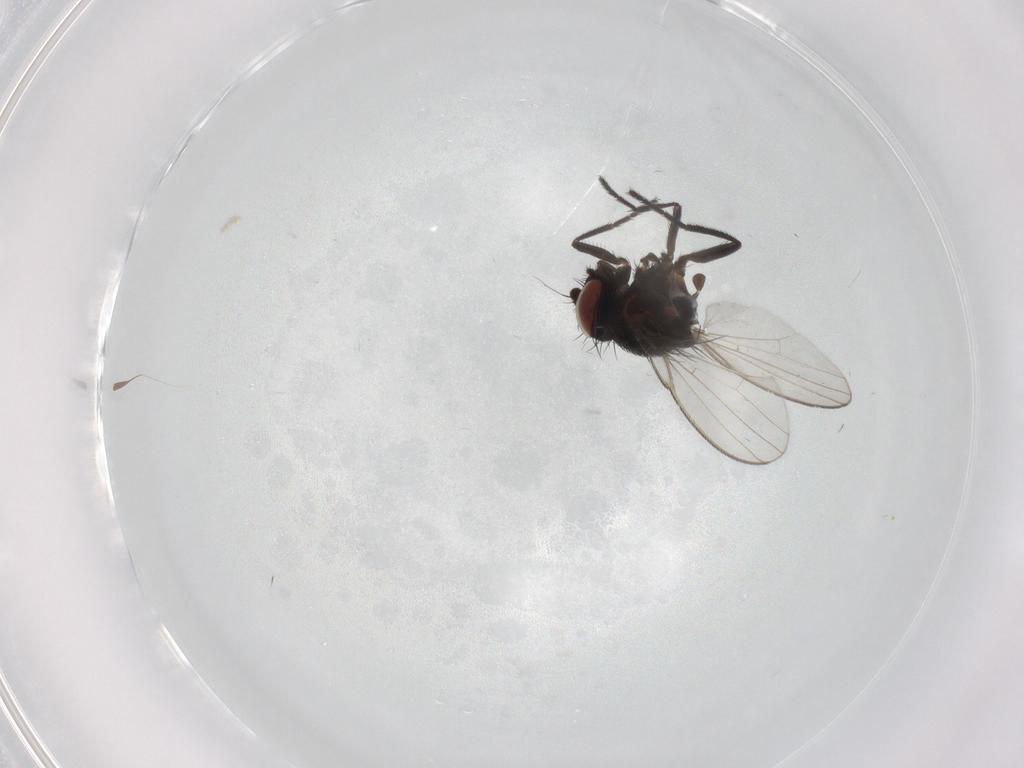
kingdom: Animalia
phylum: Arthropoda
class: Insecta
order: Diptera
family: Milichiidae
